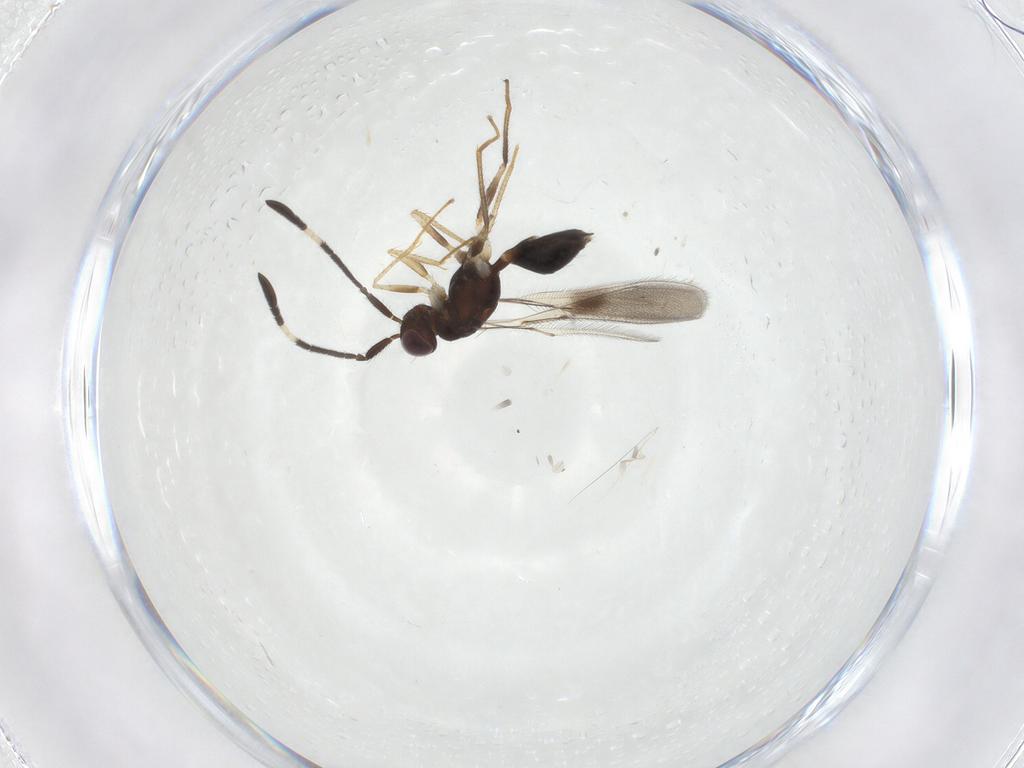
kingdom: Animalia
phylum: Arthropoda
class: Insecta
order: Hymenoptera
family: Mymaridae
